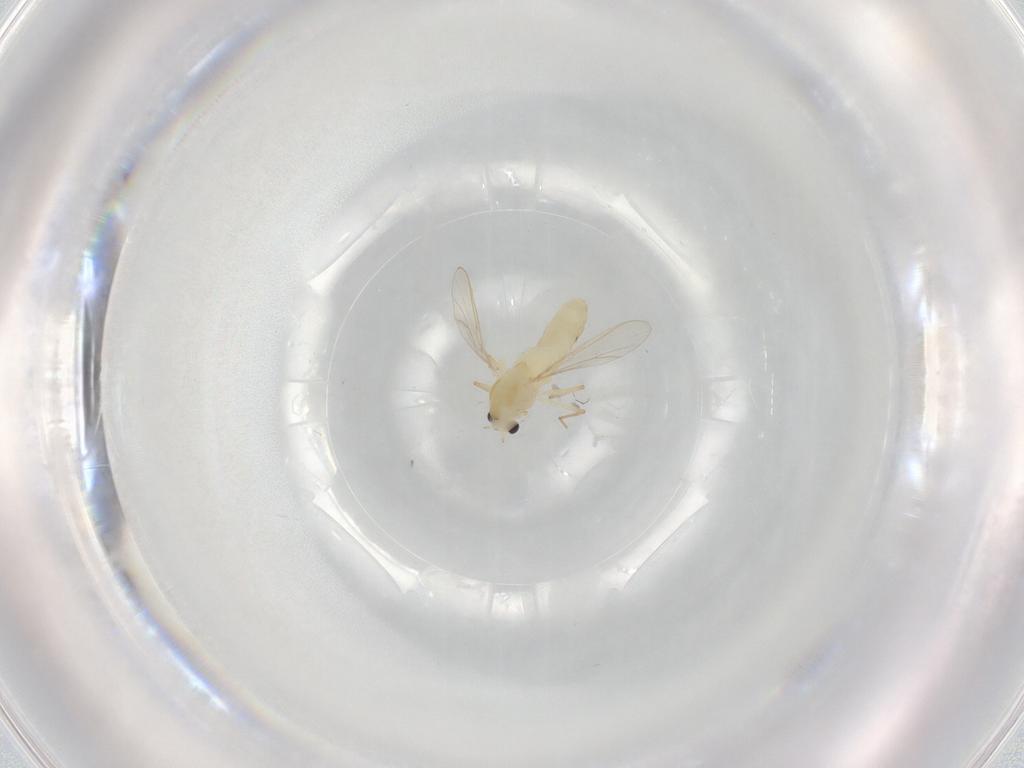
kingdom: Animalia
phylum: Arthropoda
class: Insecta
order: Diptera
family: Chironomidae
